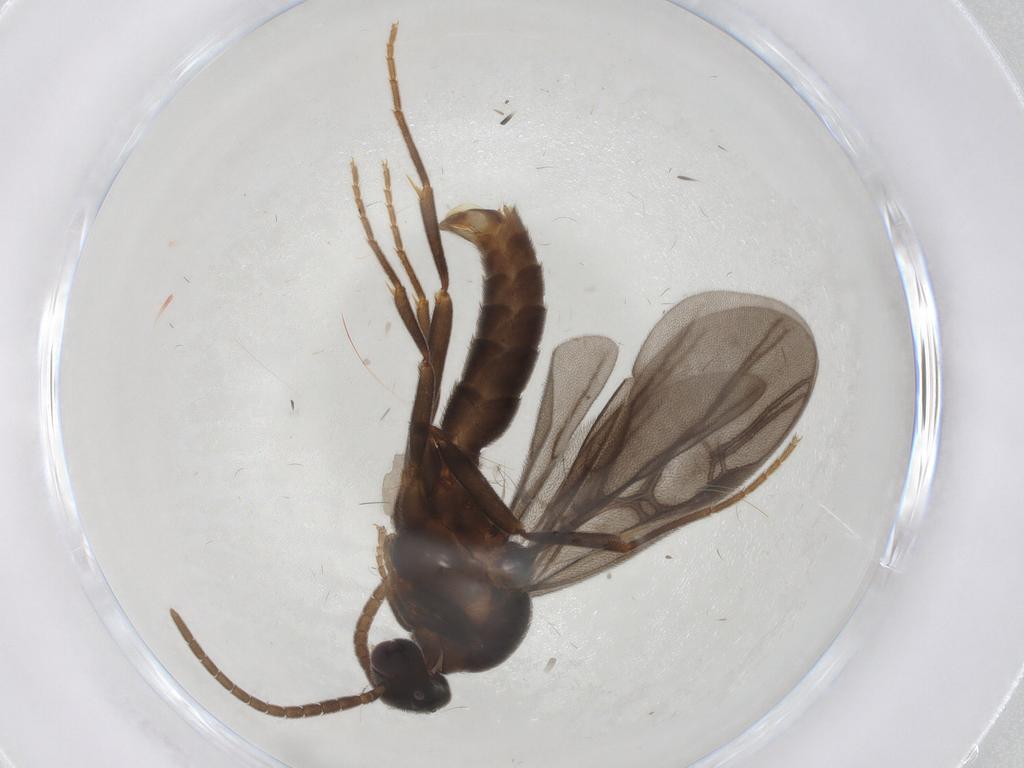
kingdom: Animalia
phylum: Arthropoda
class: Insecta
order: Hymenoptera
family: Formicidae
